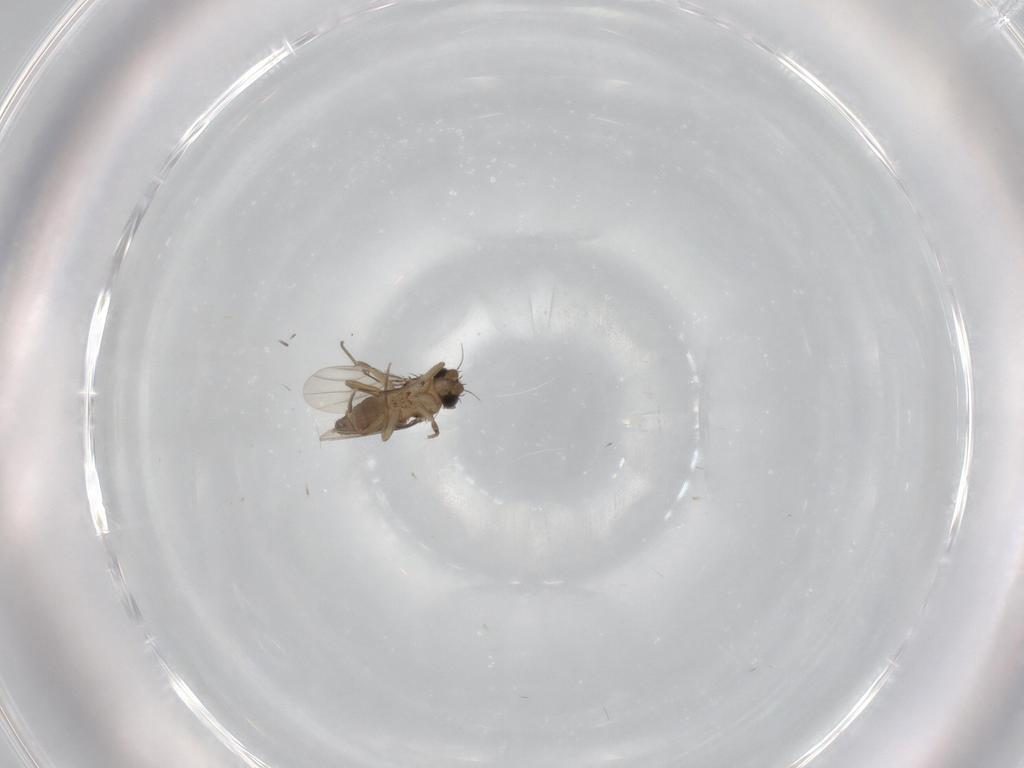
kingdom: Animalia
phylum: Arthropoda
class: Insecta
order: Diptera
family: Phoridae
